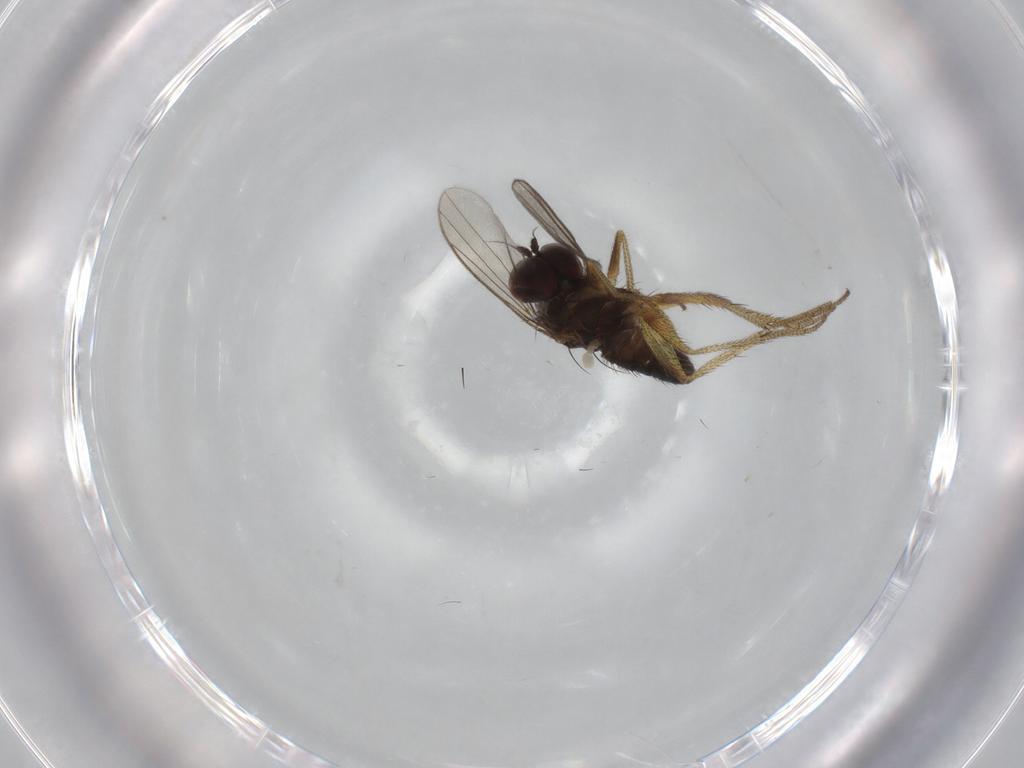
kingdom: Animalia
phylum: Arthropoda
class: Insecta
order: Diptera
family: Dolichopodidae
